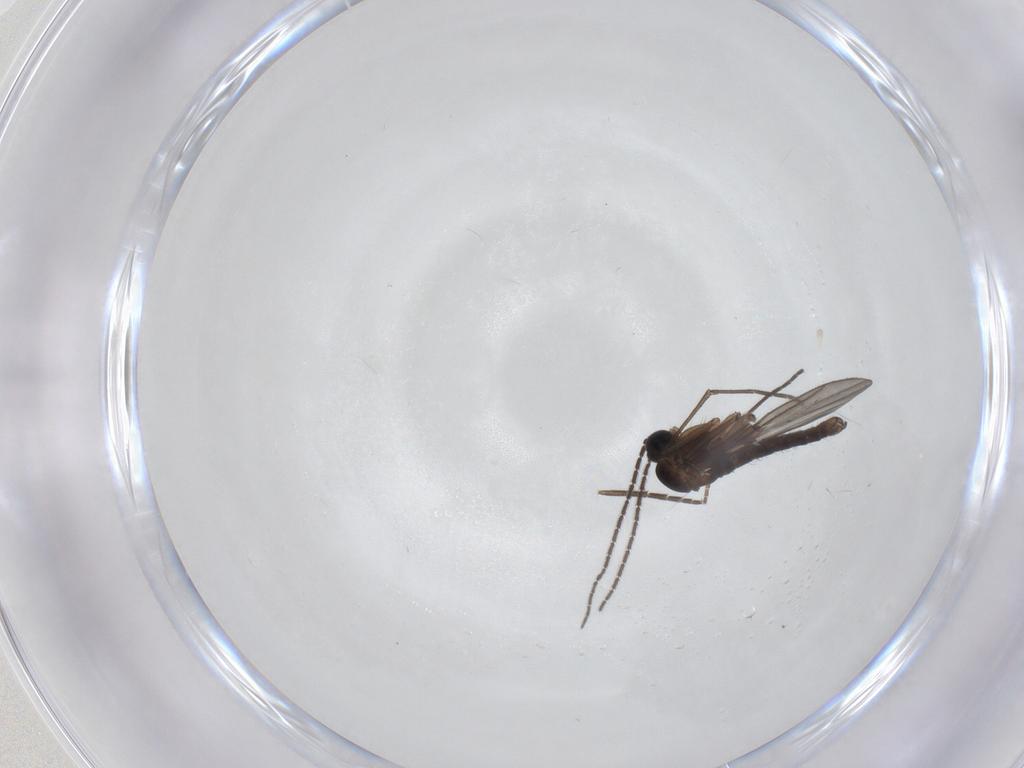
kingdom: Animalia
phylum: Arthropoda
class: Insecta
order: Diptera
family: Sciaridae
